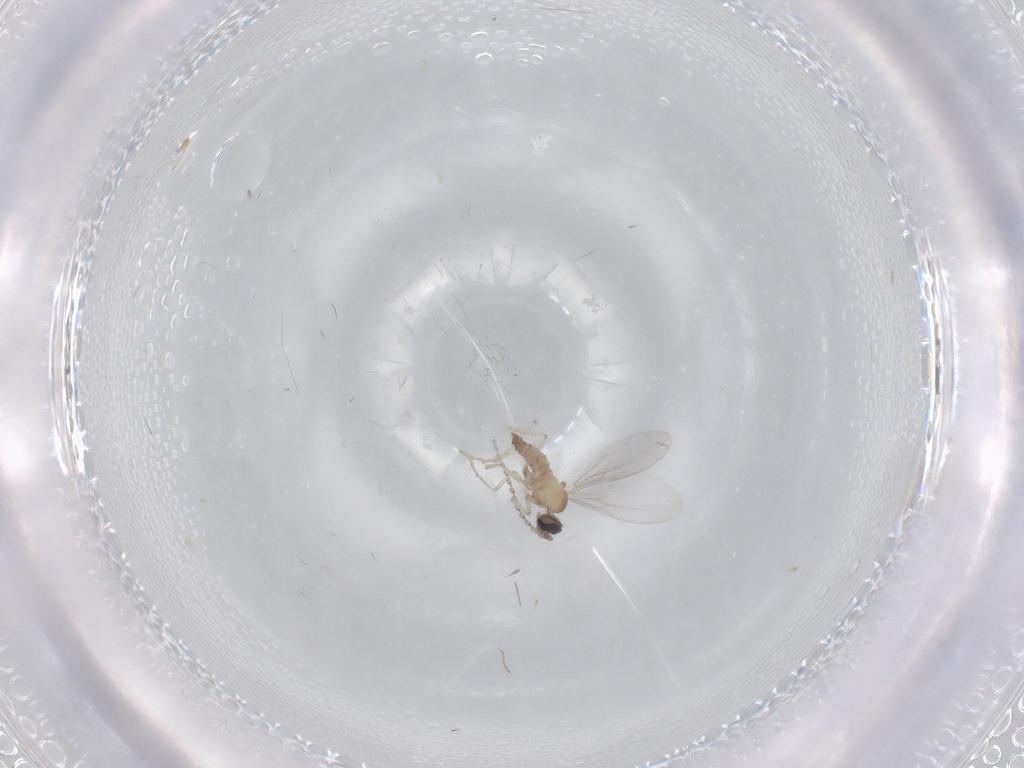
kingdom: Animalia
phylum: Arthropoda
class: Insecta
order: Diptera
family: Cecidomyiidae
